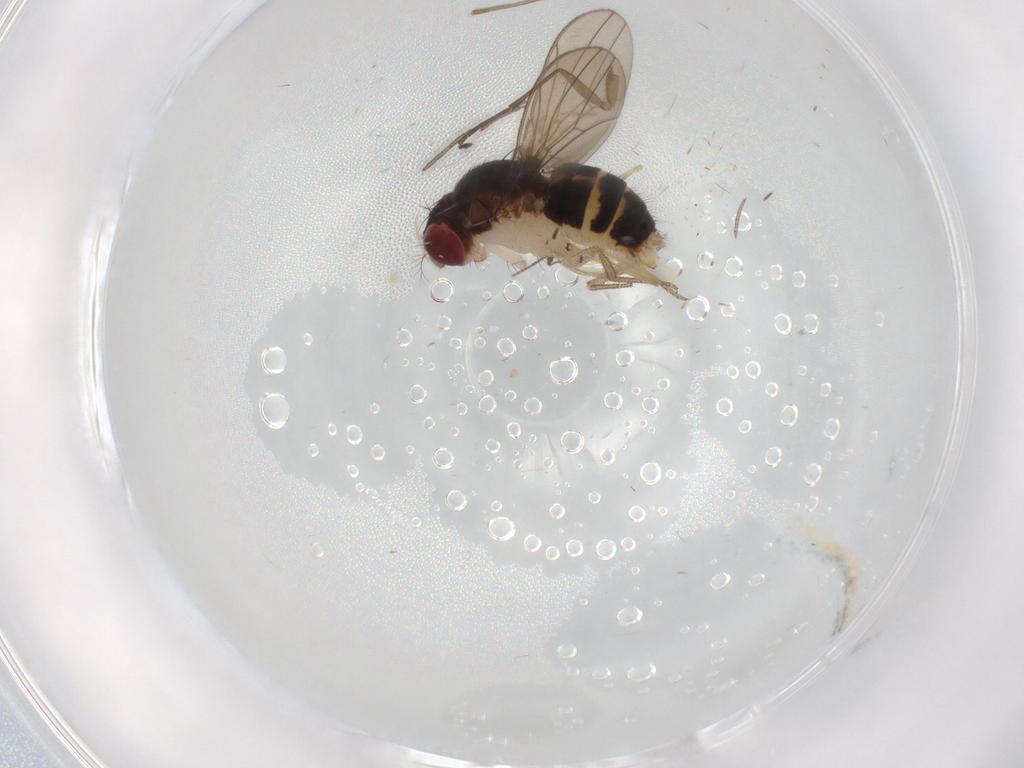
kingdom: Animalia
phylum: Arthropoda
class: Insecta
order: Diptera
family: Drosophilidae
